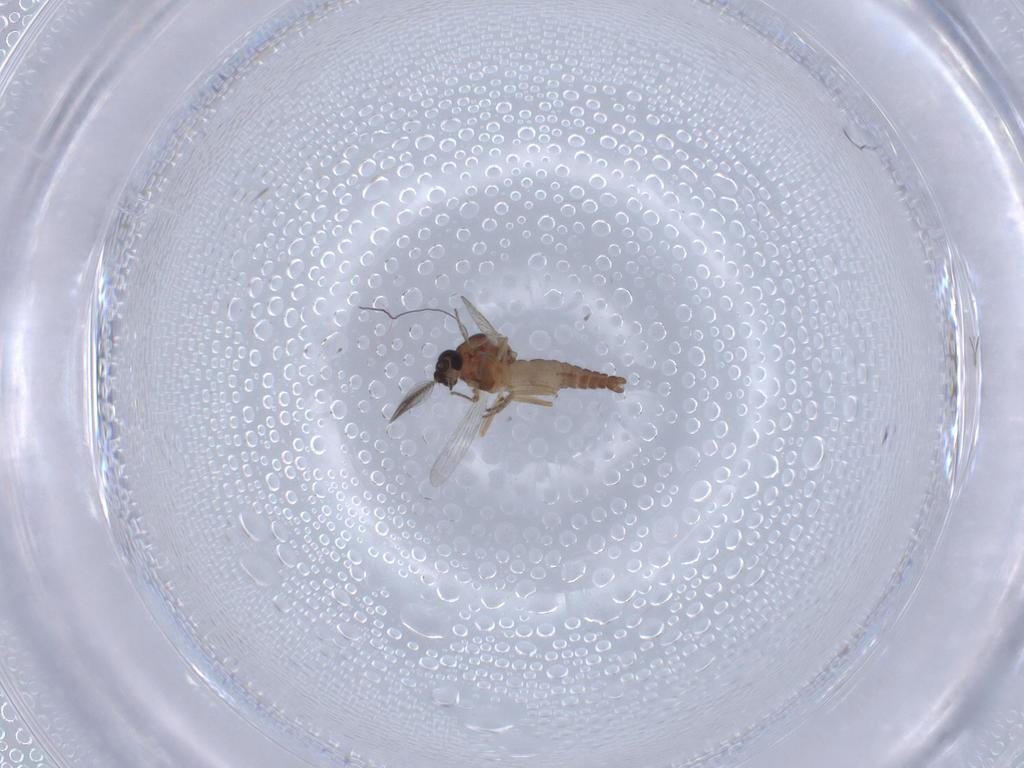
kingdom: Animalia
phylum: Arthropoda
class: Insecta
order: Diptera
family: Ceratopogonidae
